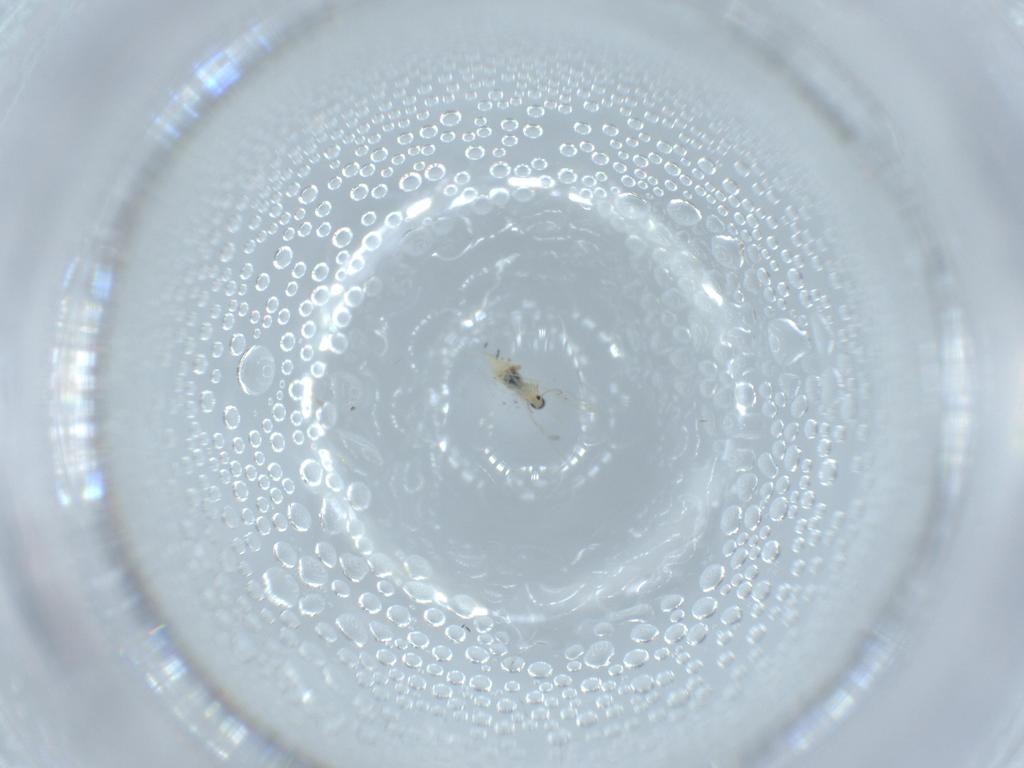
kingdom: Animalia
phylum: Arthropoda
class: Insecta
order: Diptera
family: Cecidomyiidae
